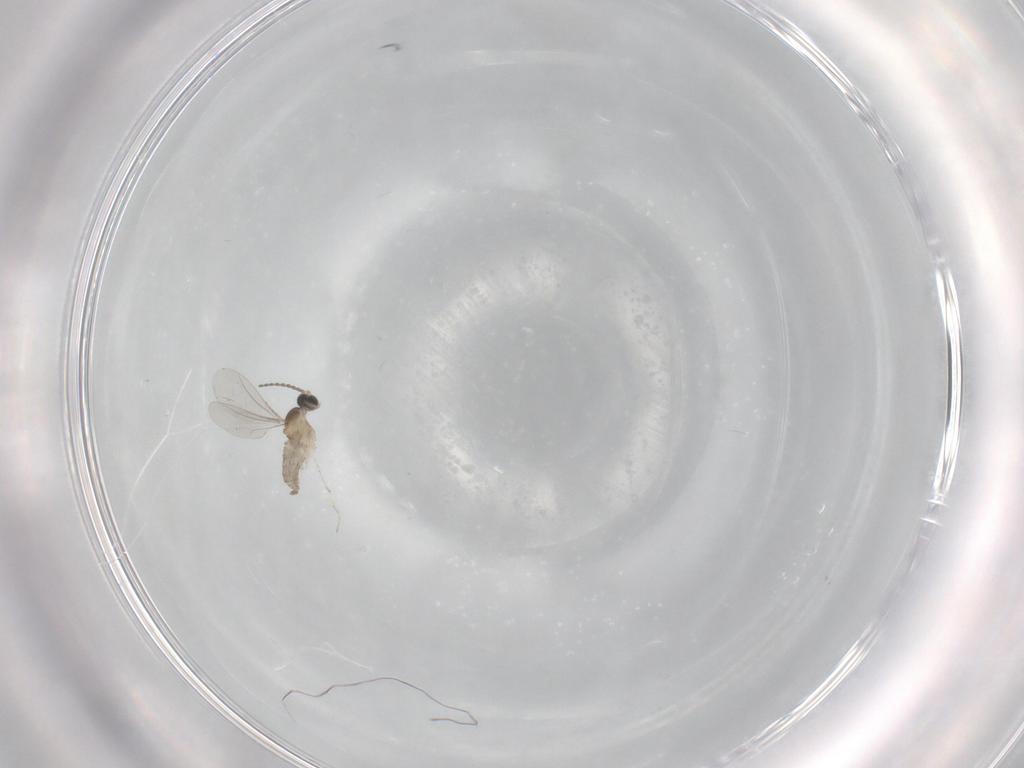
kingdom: Animalia
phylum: Arthropoda
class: Insecta
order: Diptera
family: Cecidomyiidae
